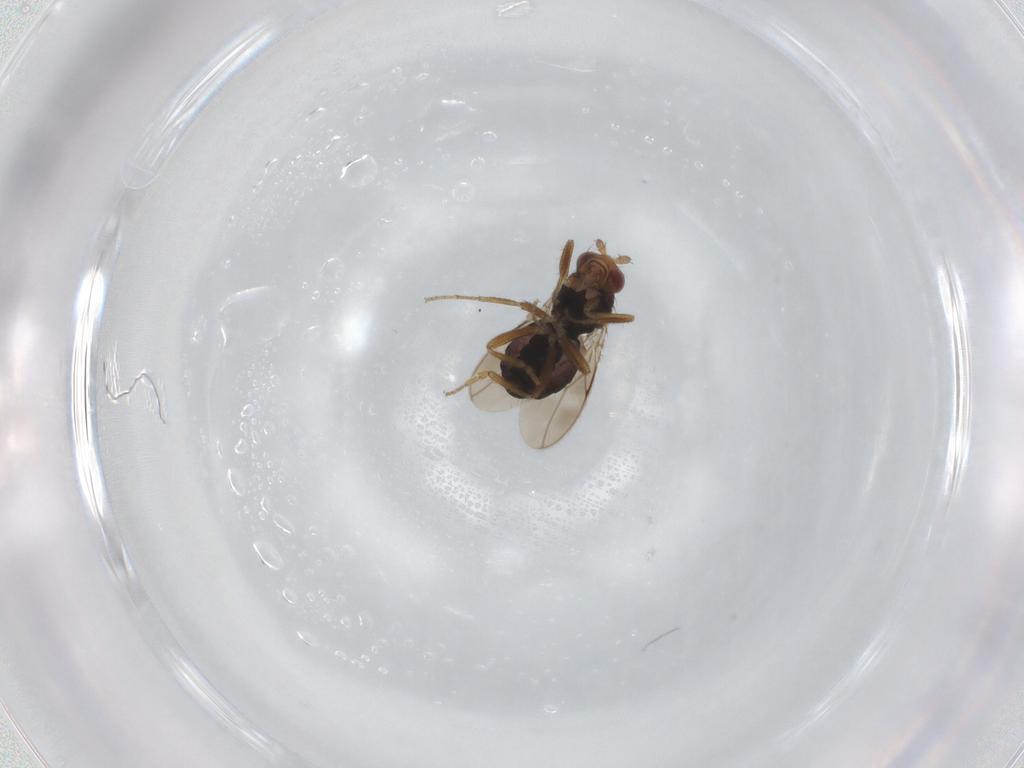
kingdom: Animalia
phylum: Arthropoda
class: Insecta
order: Diptera
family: Sphaeroceridae
